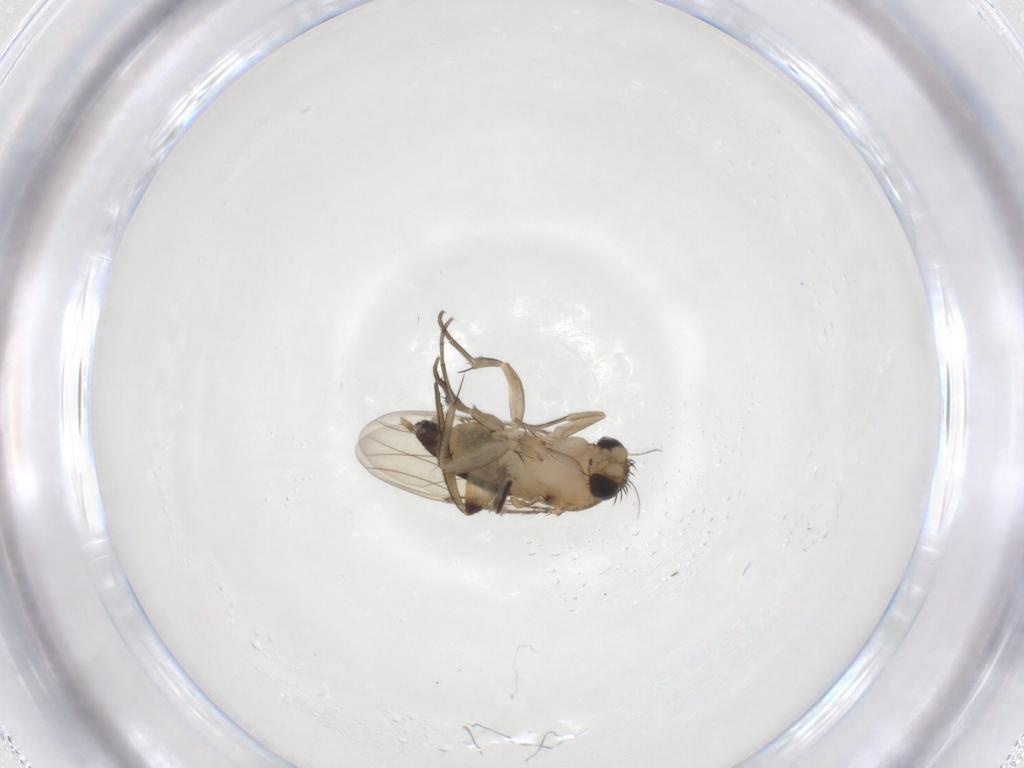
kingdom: Animalia
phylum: Arthropoda
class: Insecta
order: Diptera
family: Phoridae
